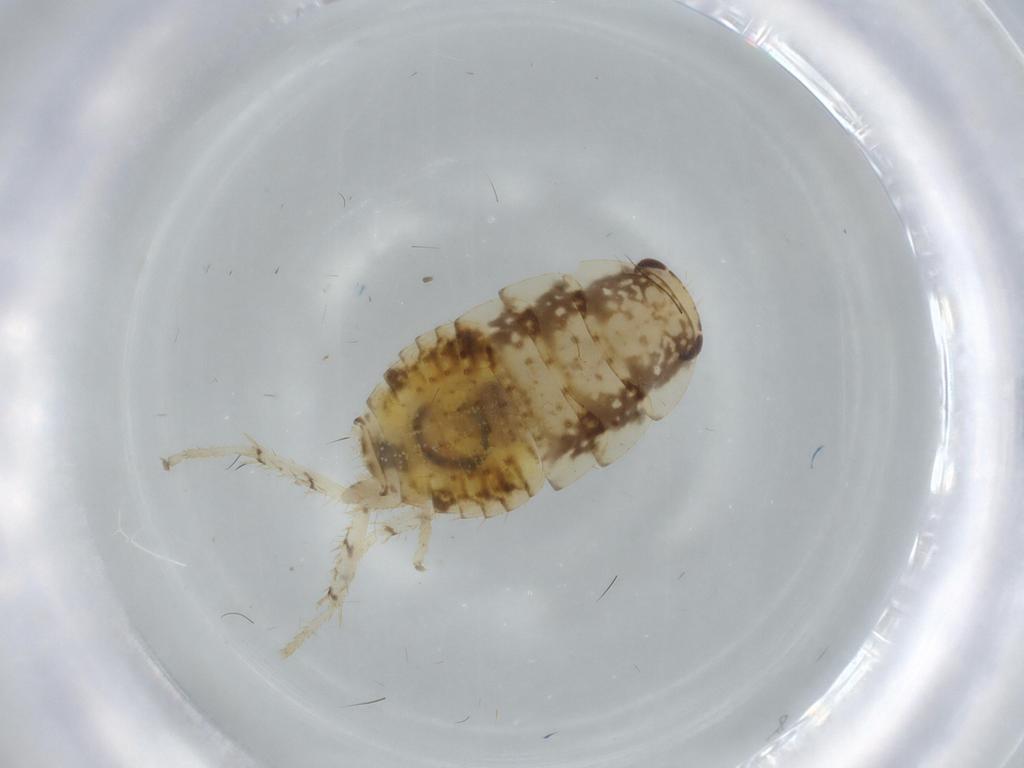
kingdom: Animalia
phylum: Arthropoda
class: Insecta
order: Blattodea
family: Ectobiidae
